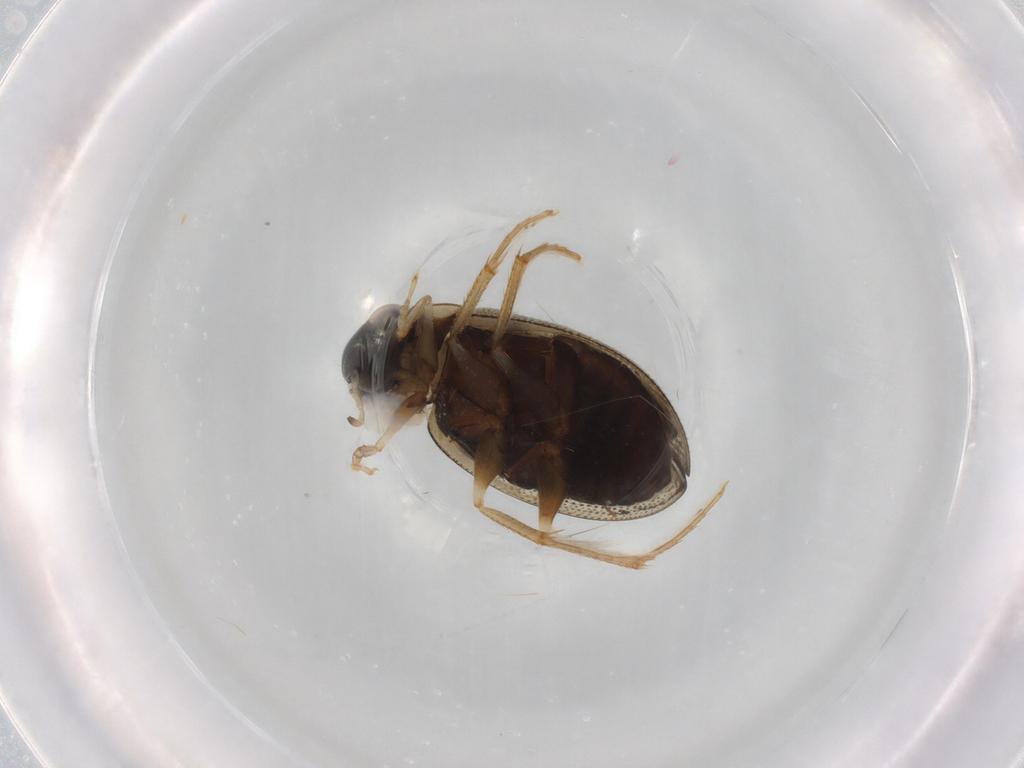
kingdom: Animalia
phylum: Arthropoda
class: Insecta
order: Coleoptera
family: Hydrophilidae
